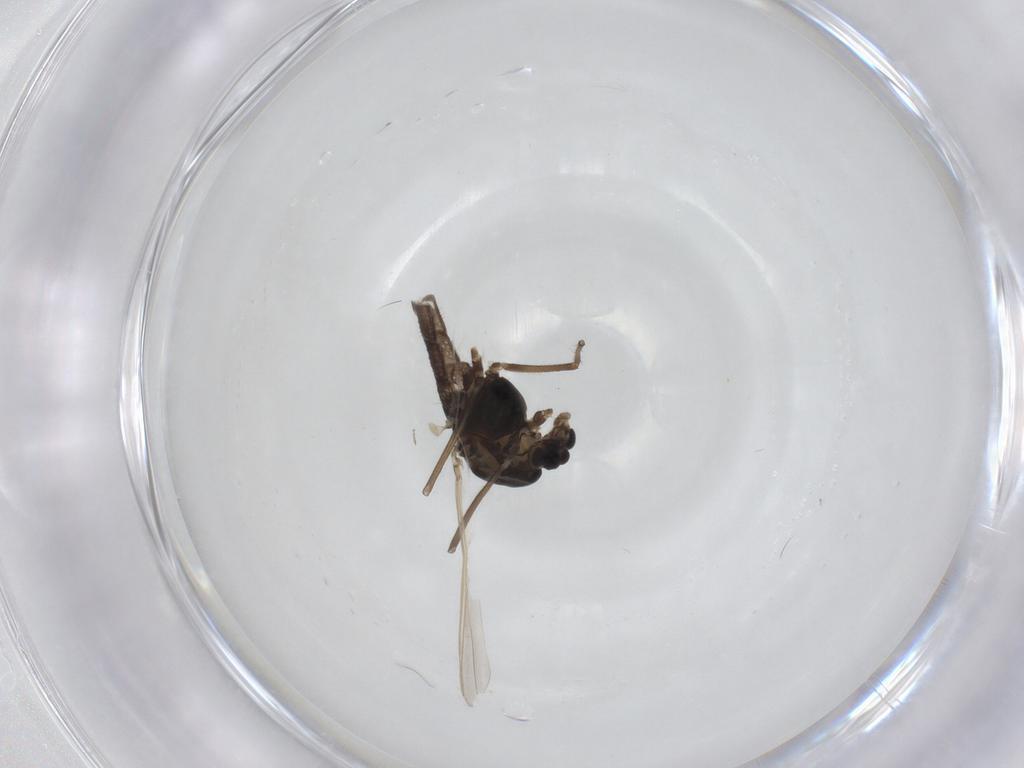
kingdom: Animalia
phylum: Arthropoda
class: Insecta
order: Diptera
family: Chironomidae
